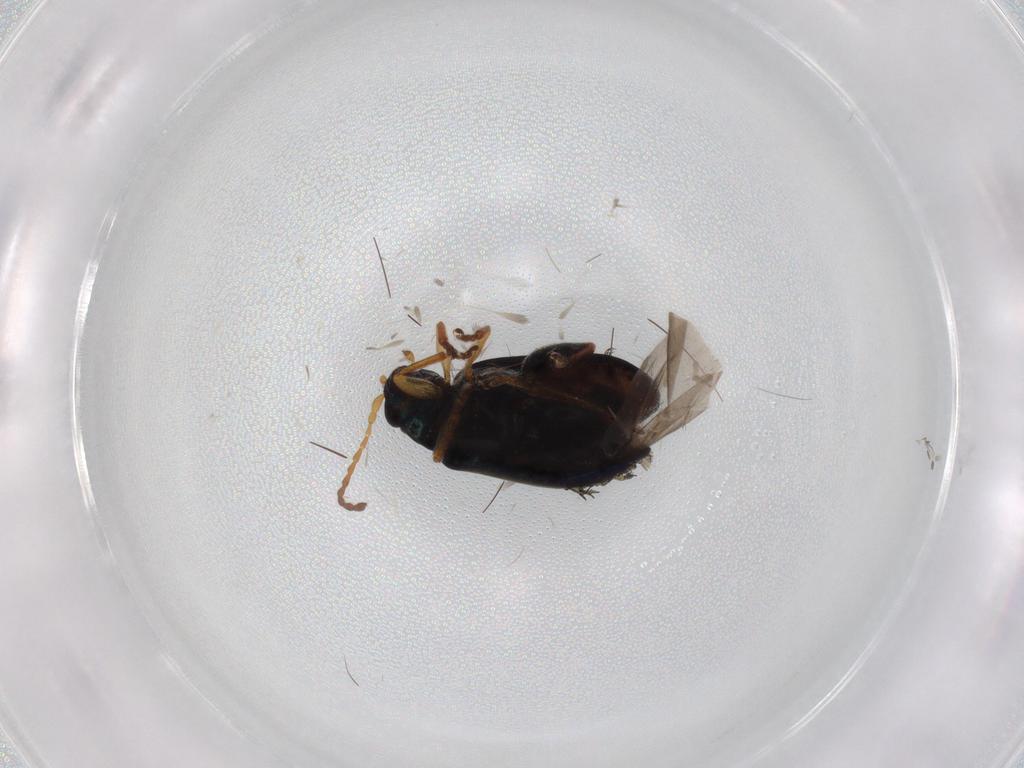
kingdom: Animalia
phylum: Arthropoda
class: Insecta
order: Coleoptera
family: Chrysomelidae
